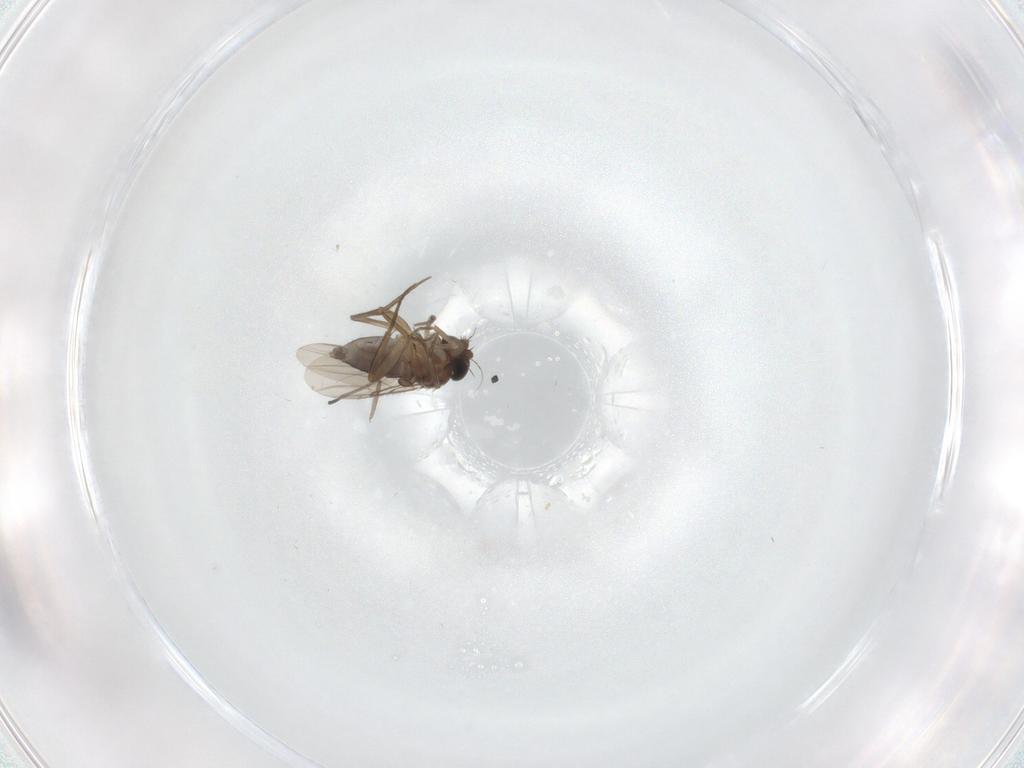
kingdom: Animalia
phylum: Arthropoda
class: Insecta
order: Diptera
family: Phoridae
